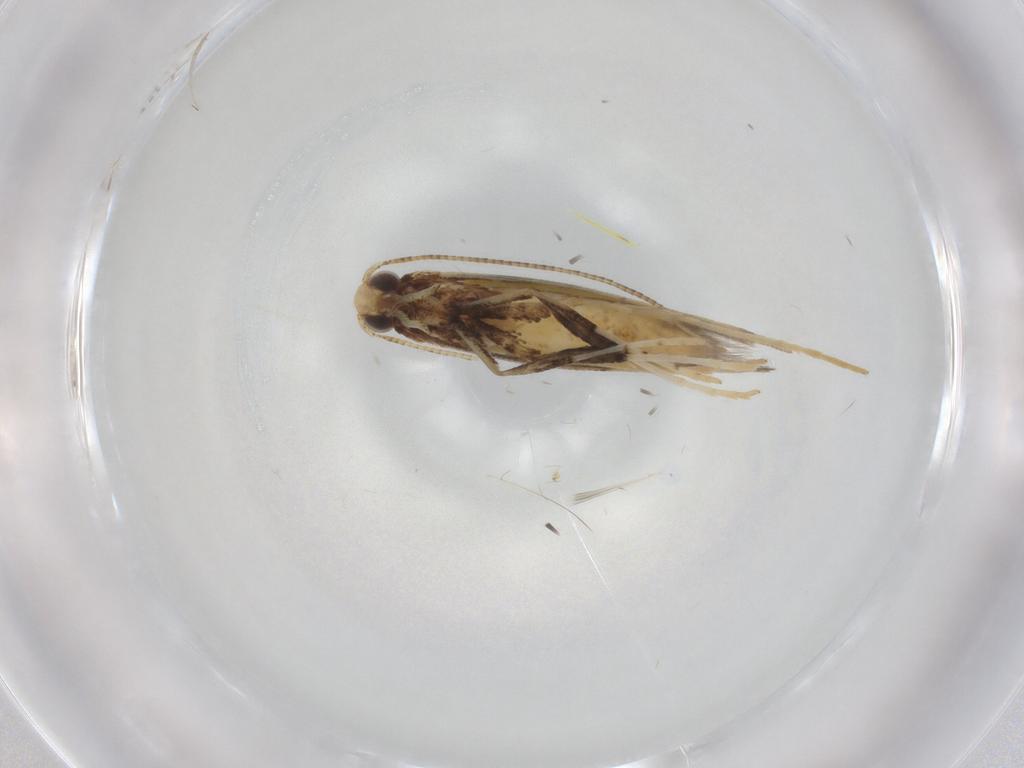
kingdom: Animalia
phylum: Arthropoda
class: Insecta
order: Lepidoptera
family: Gracillariidae
